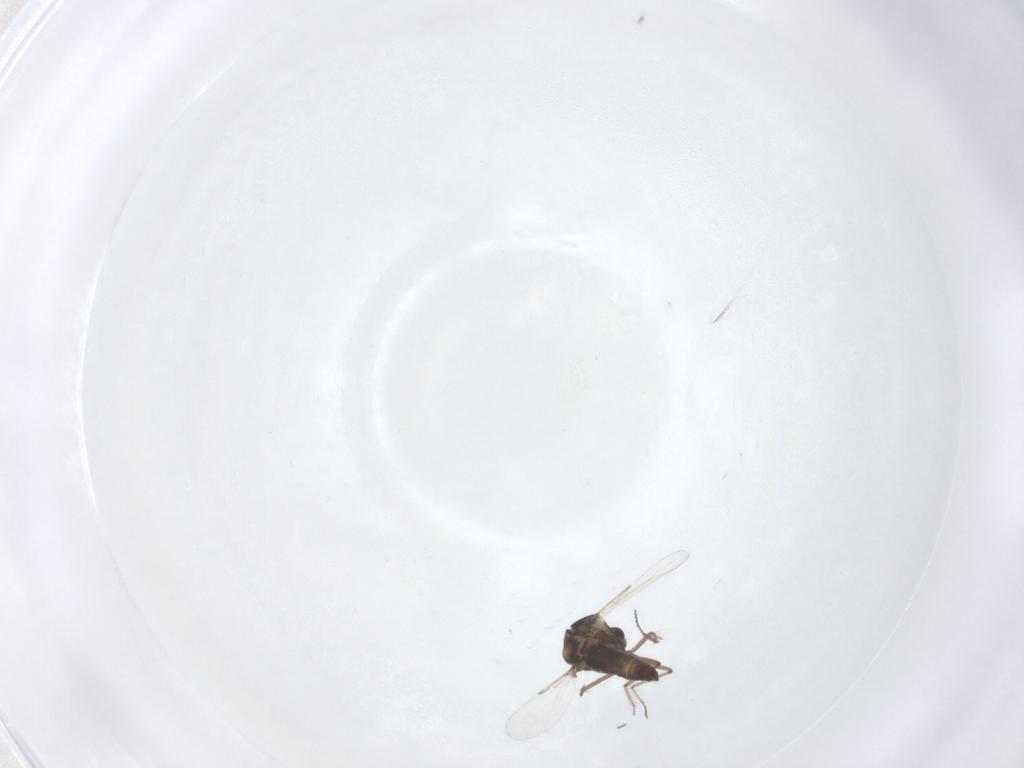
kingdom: Animalia
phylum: Arthropoda
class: Insecta
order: Diptera
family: Ceratopogonidae
